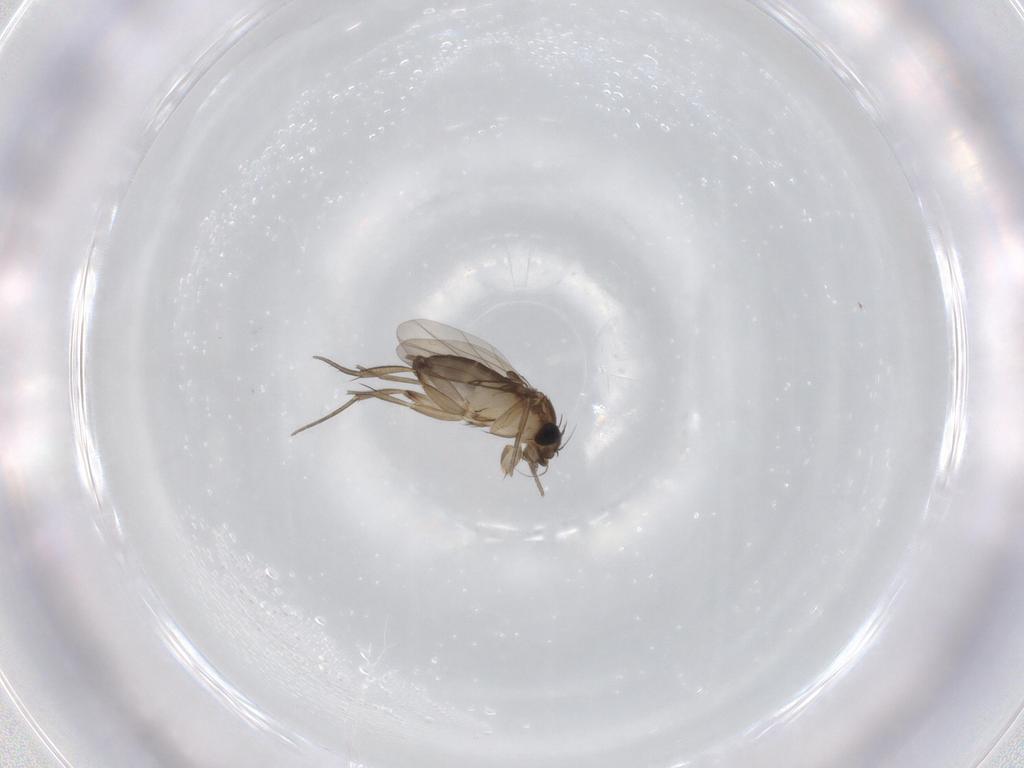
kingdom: Animalia
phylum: Arthropoda
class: Insecta
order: Diptera
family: Phoridae
